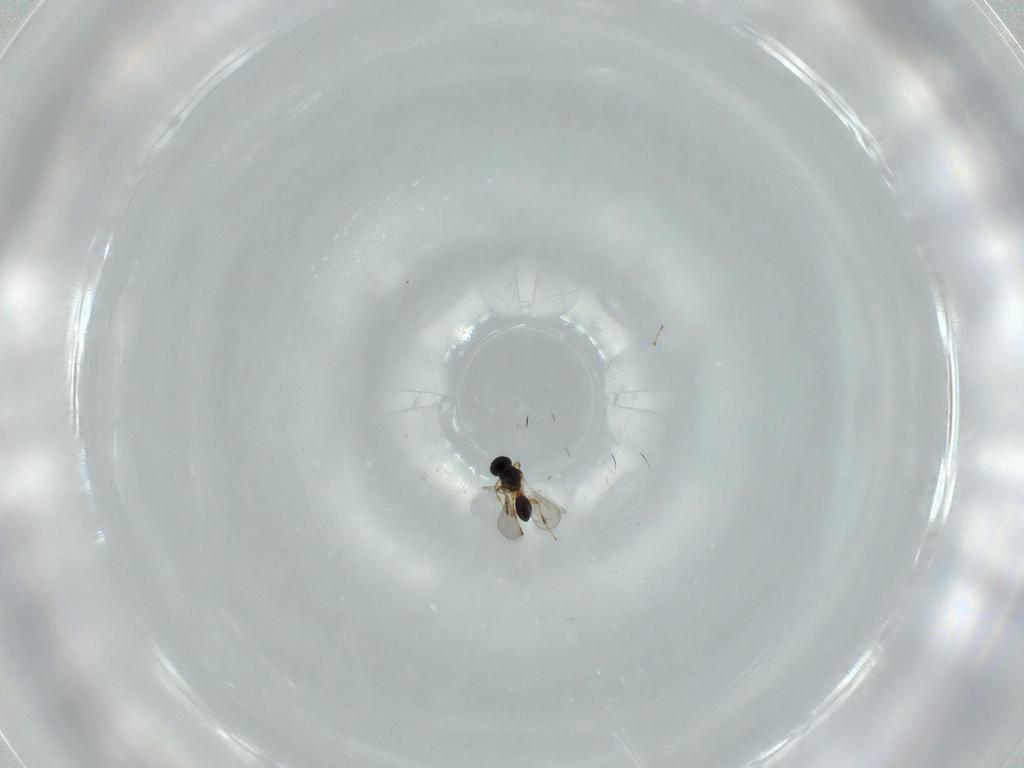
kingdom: Animalia
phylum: Arthropoda
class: Insecta
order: Hymenoptera
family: Platygastridae
